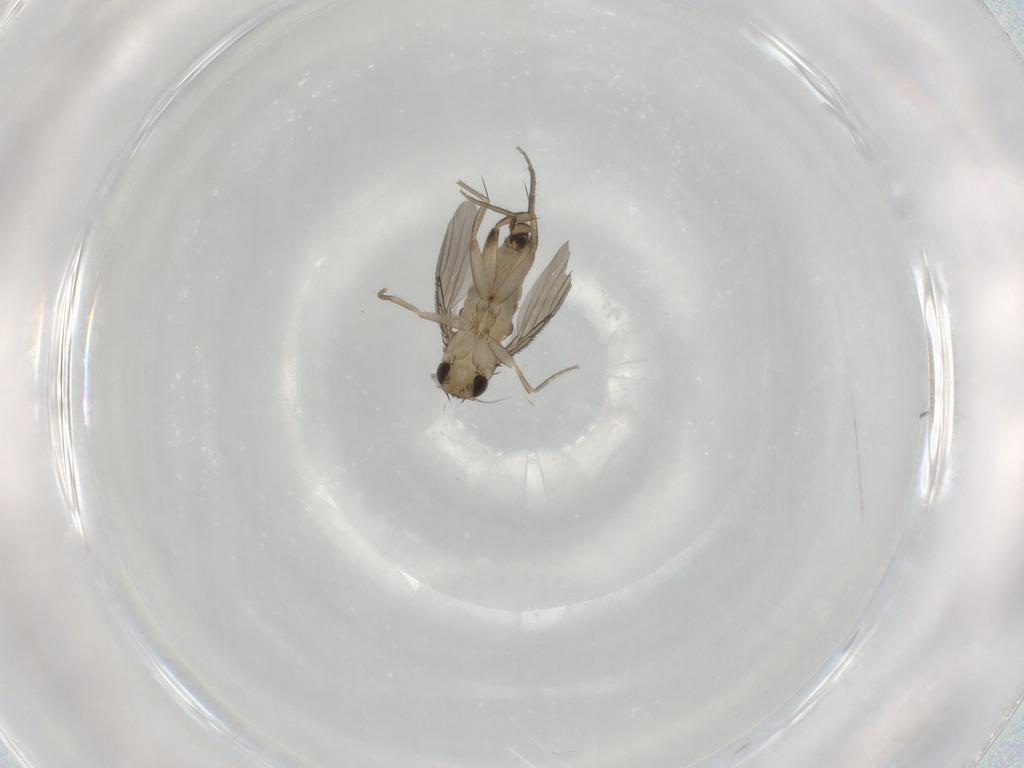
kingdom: Animalia
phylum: Arthropoda
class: Insecta
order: Diptera
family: Phoridae
